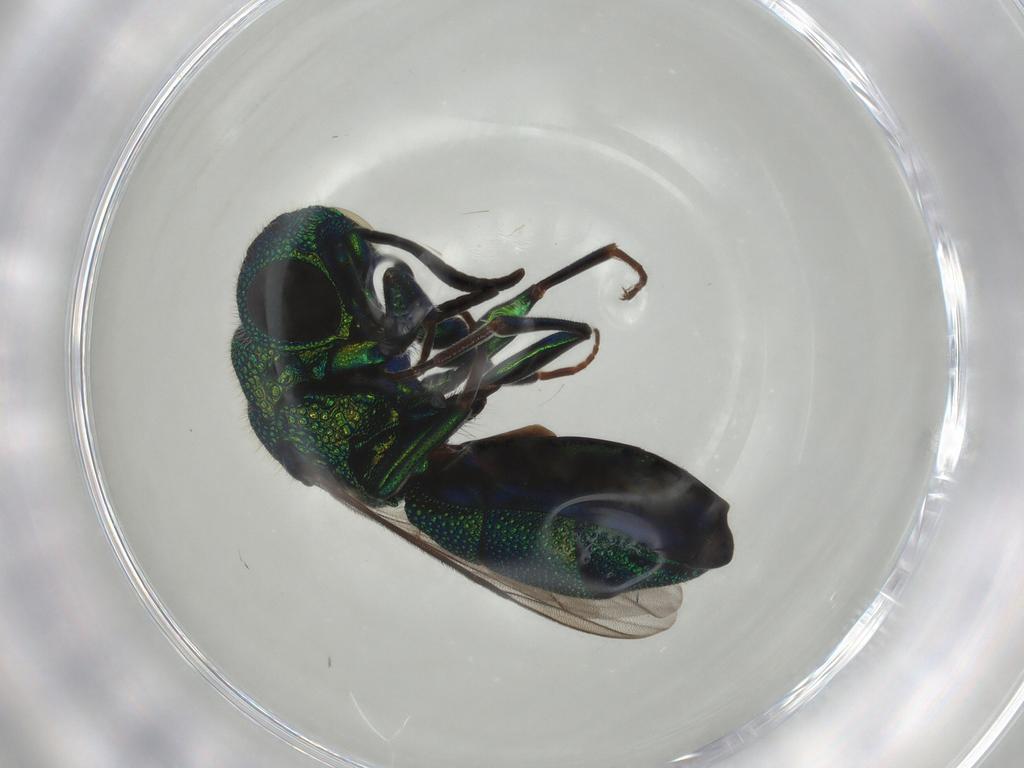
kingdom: Animalia
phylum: Arthropoda
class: Insecta
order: Hymenoptera
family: Chrysididae
